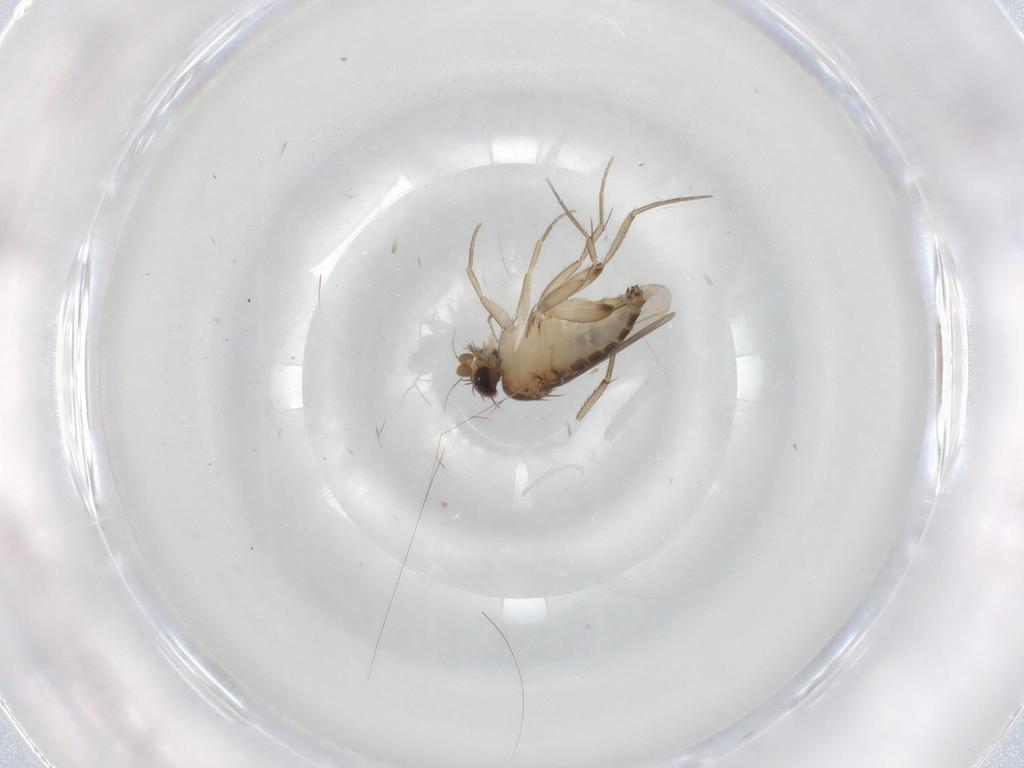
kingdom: Animalia
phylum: Arthropoda
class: Insecta
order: Diptera
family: Phoridae
